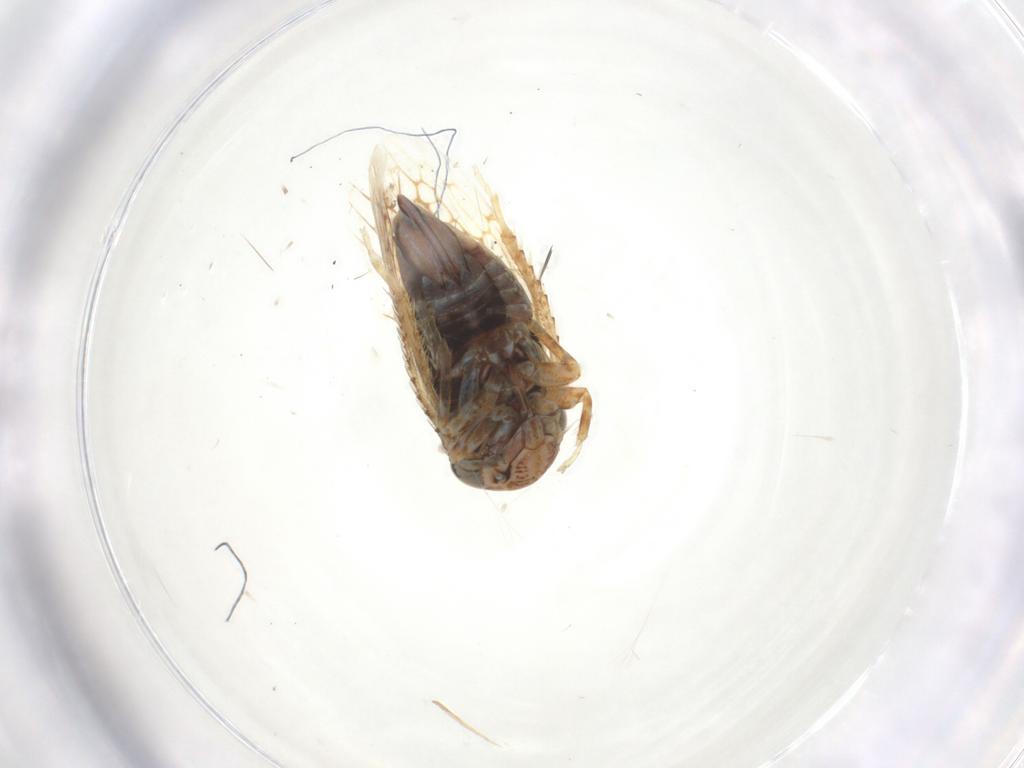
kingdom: Animalia
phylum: Arthropoda
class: Insecta
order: Hemiptera
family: Cicadellidae
